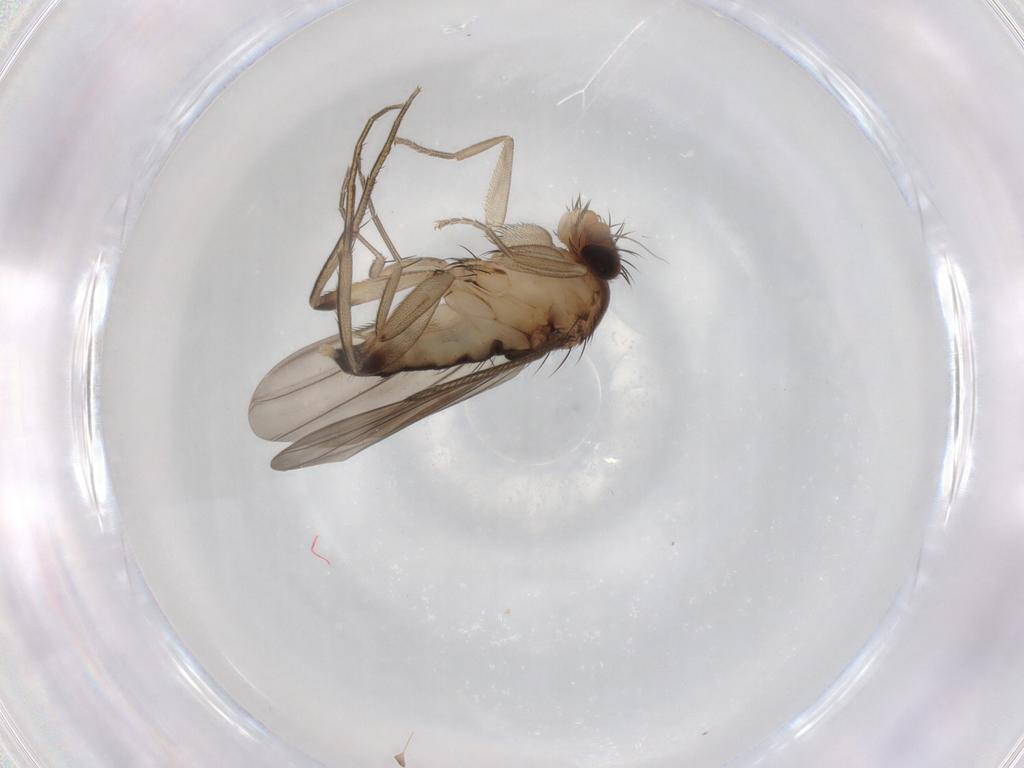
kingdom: Animalia
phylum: Arthropoda
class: Insecta
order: Diptera
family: Phoridae
